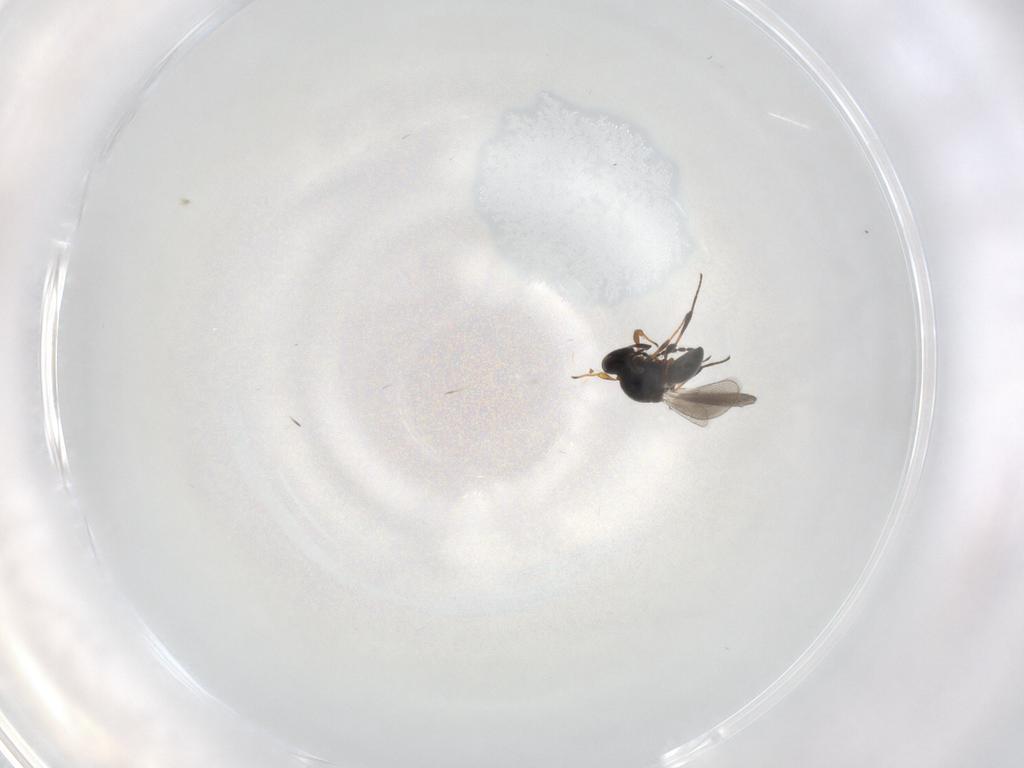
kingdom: Animalia
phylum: Arthropoda
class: Insecta
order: Hymenoptera
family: Platygastridae
